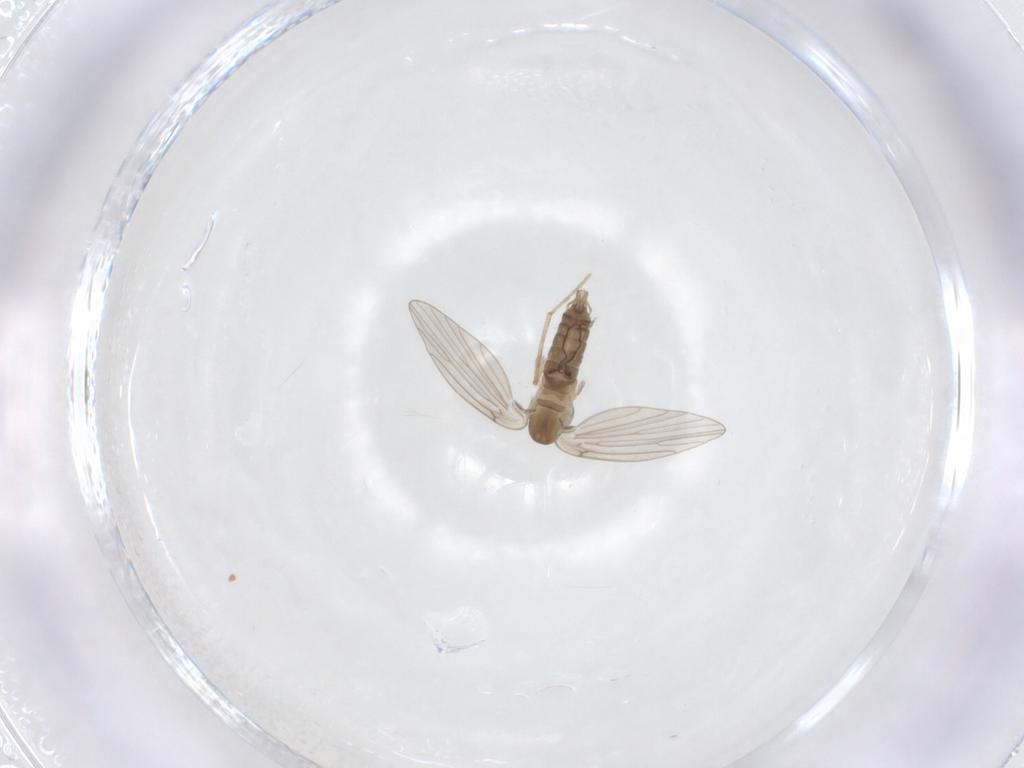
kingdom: Animalia
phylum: Arthropoda
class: Insecta
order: Diptera
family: Psychodidae
